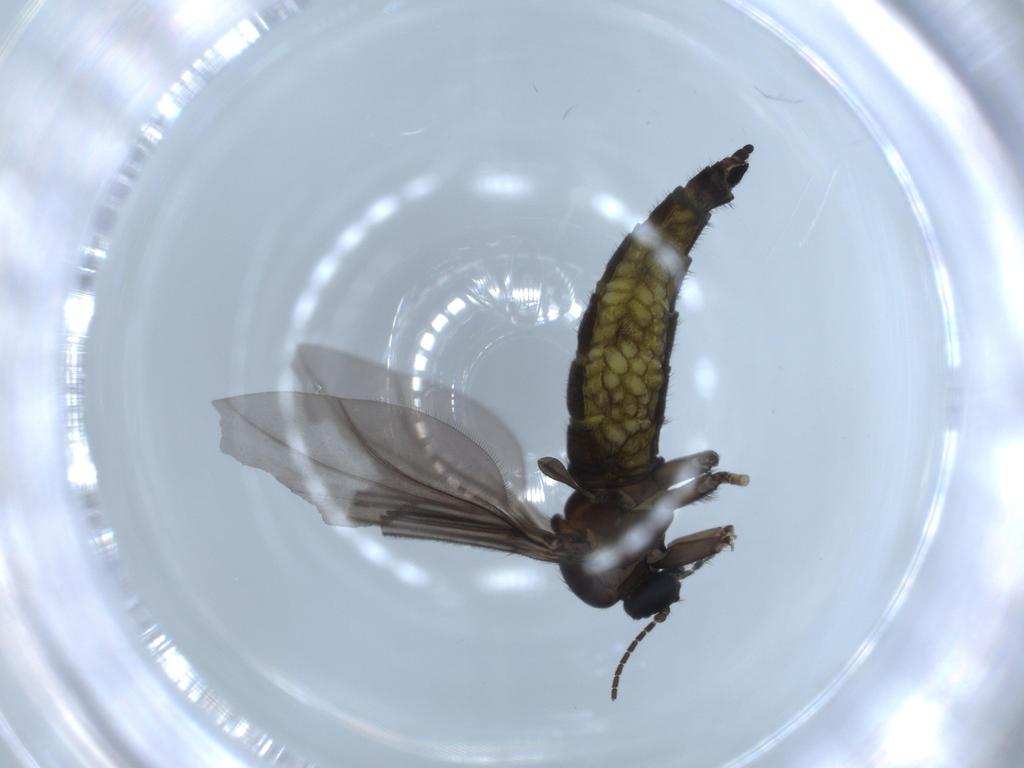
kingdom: Animalia
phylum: Arthropoda
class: Insecta
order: Diptera
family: Sciaridae
